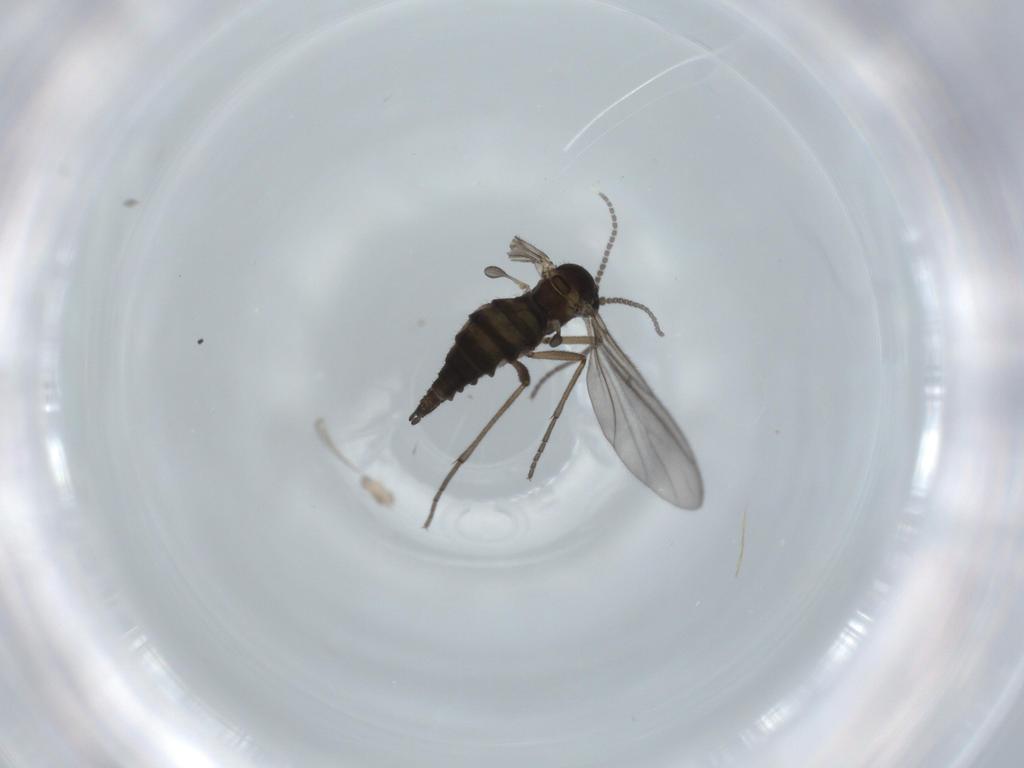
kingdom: Animalia
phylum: Arthropoda
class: Insecta
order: Diptera
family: Sciaridae
